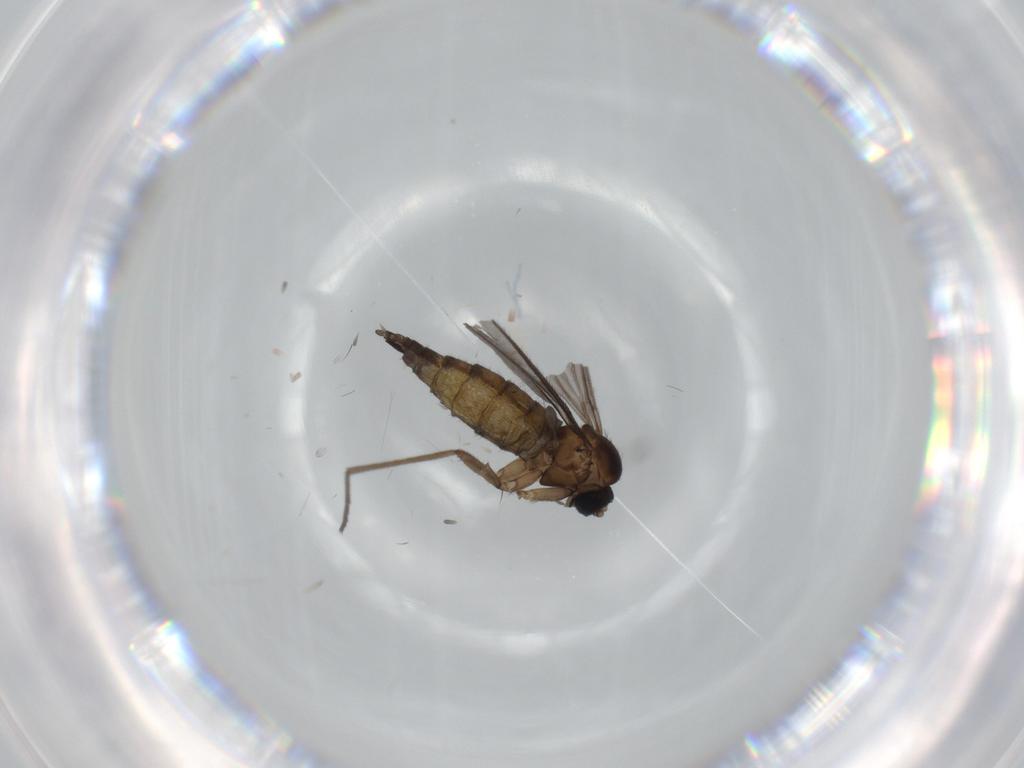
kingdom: Animalia
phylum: Arthropoda
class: Insecta
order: Diptera
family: Sciaridae
